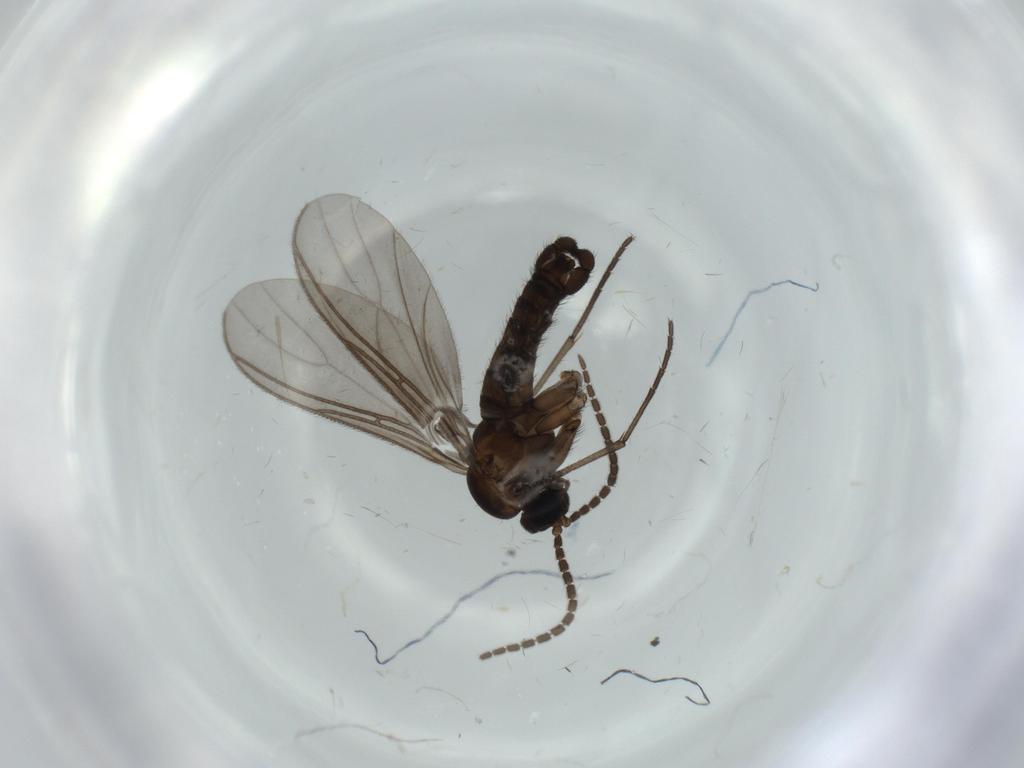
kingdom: Animalia
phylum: Arthropoda
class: Insecta
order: Diptera
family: Sciaridae
